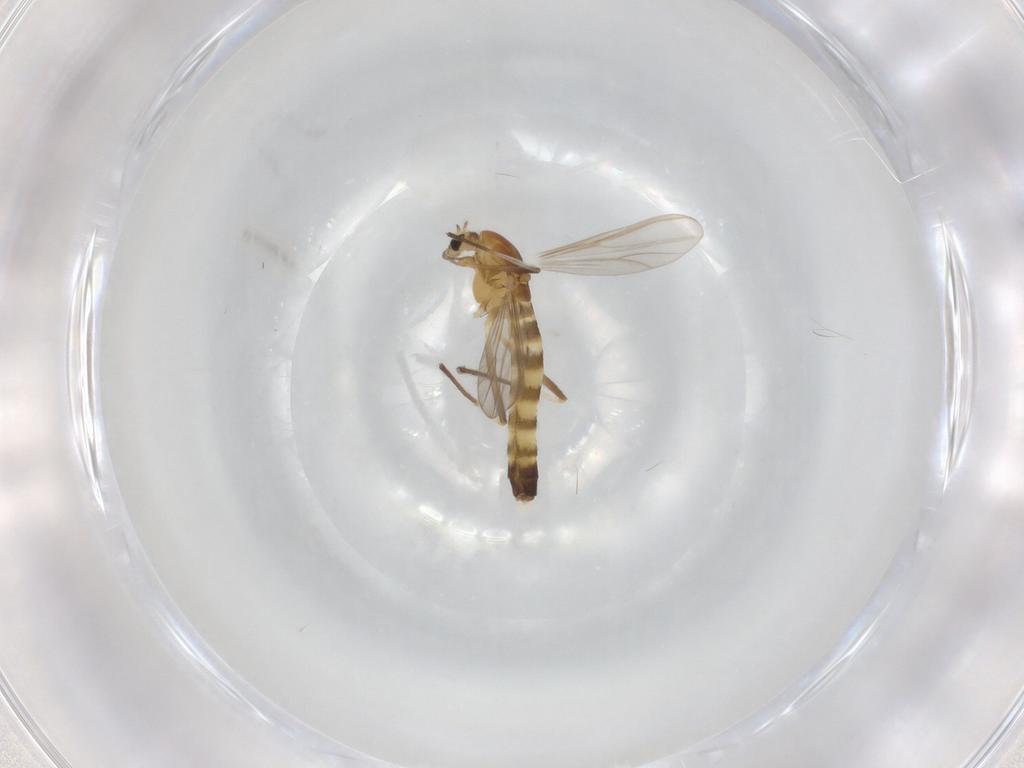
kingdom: Animalia
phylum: Arthropoda
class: Insecta
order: Diptera
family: Chironomidae
